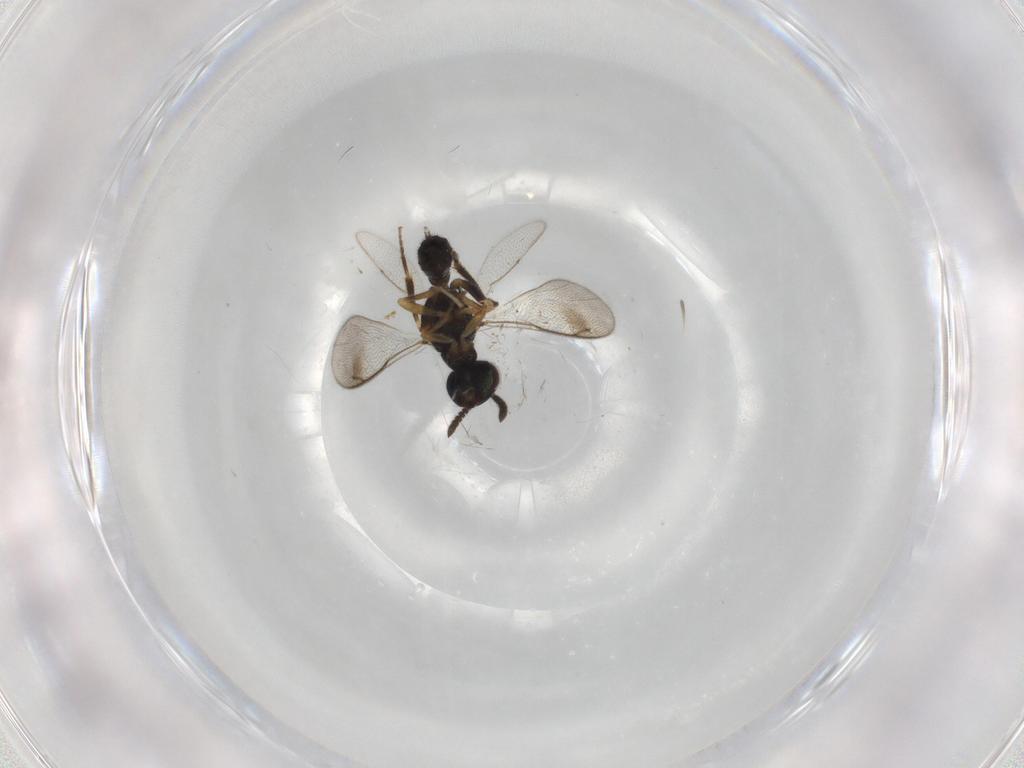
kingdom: Animalia
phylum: Arthropoda
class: Insecta
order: Hymenoptera
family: Cleonyminae
